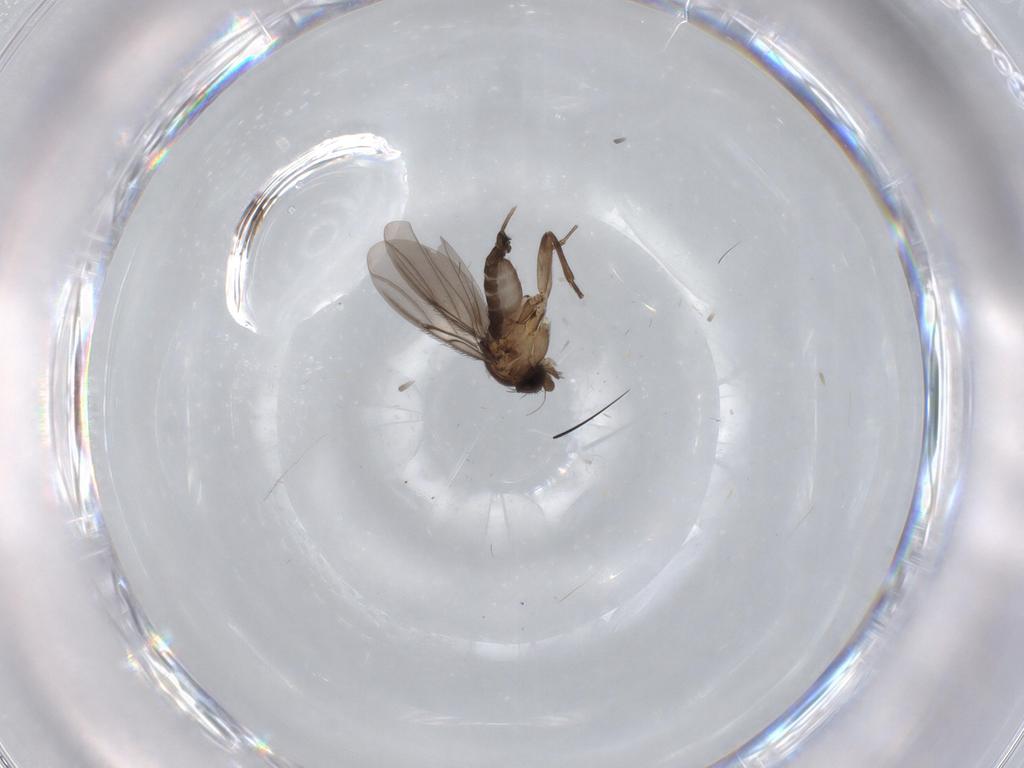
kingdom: Animalia
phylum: Arthropoda
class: Insecta
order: Diptera
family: Phoridae
